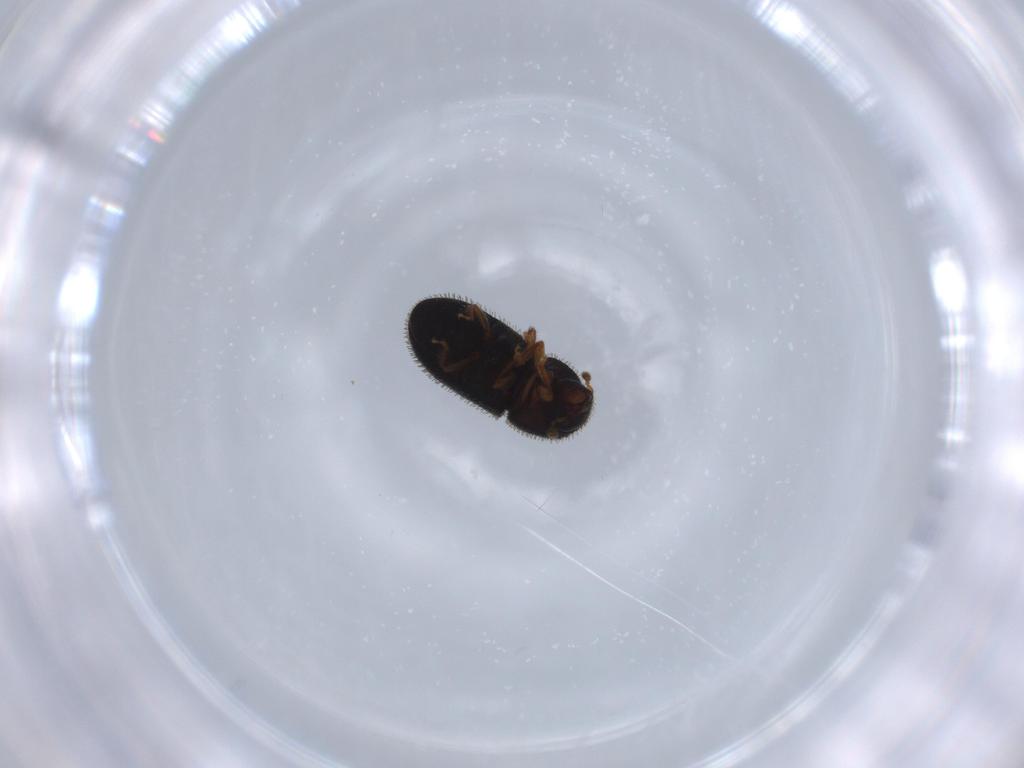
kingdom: Animalia
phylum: Arthropoda
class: Insecta
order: Coleoptera
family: Curculionidae
